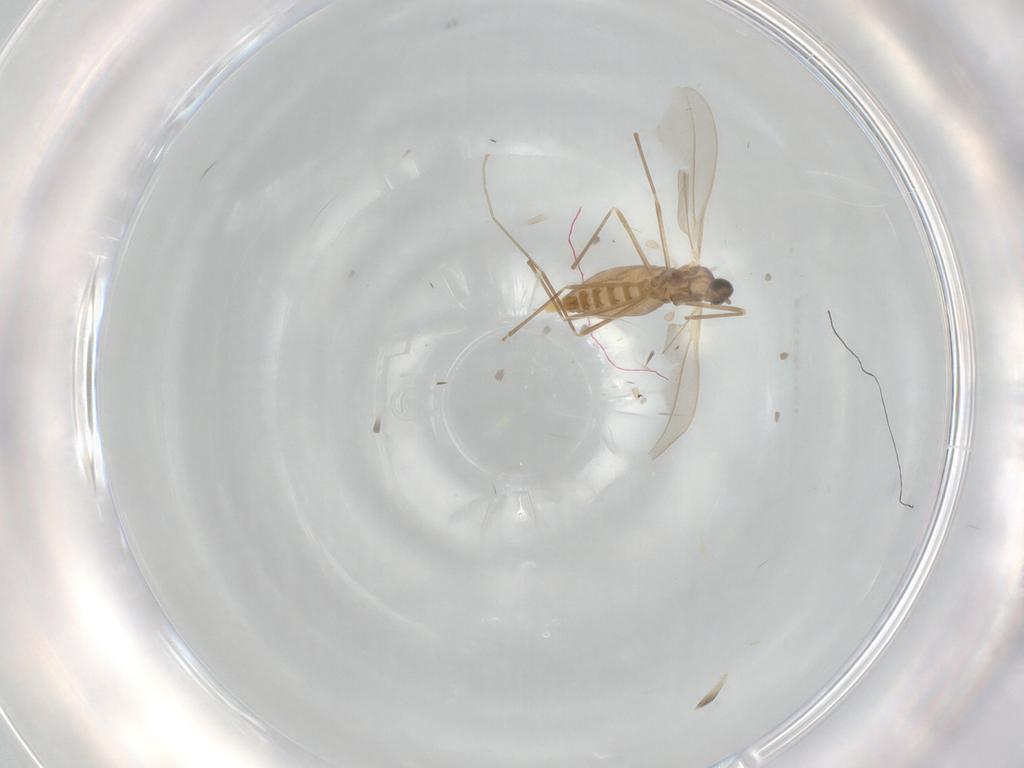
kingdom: Animalia
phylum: Arthropoda
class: Insecta
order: Diptera
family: Cecidomyiidae
